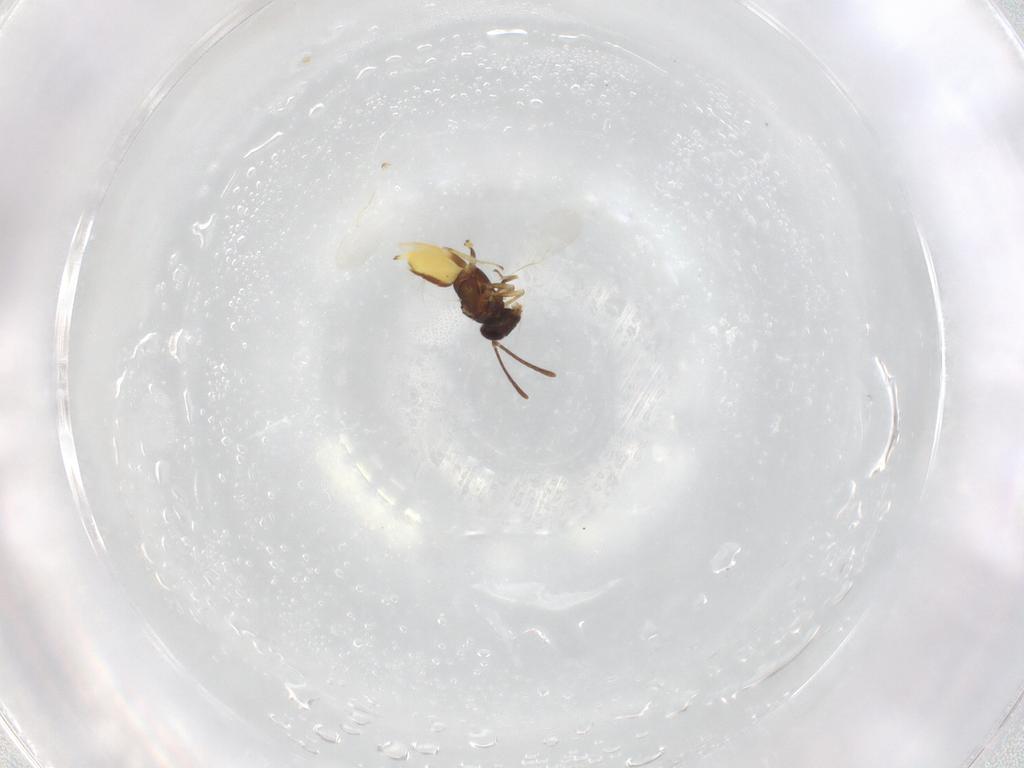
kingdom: Animalia
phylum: Arthropoda
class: Insecta
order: Hymenoptera
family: Encyrtidae
